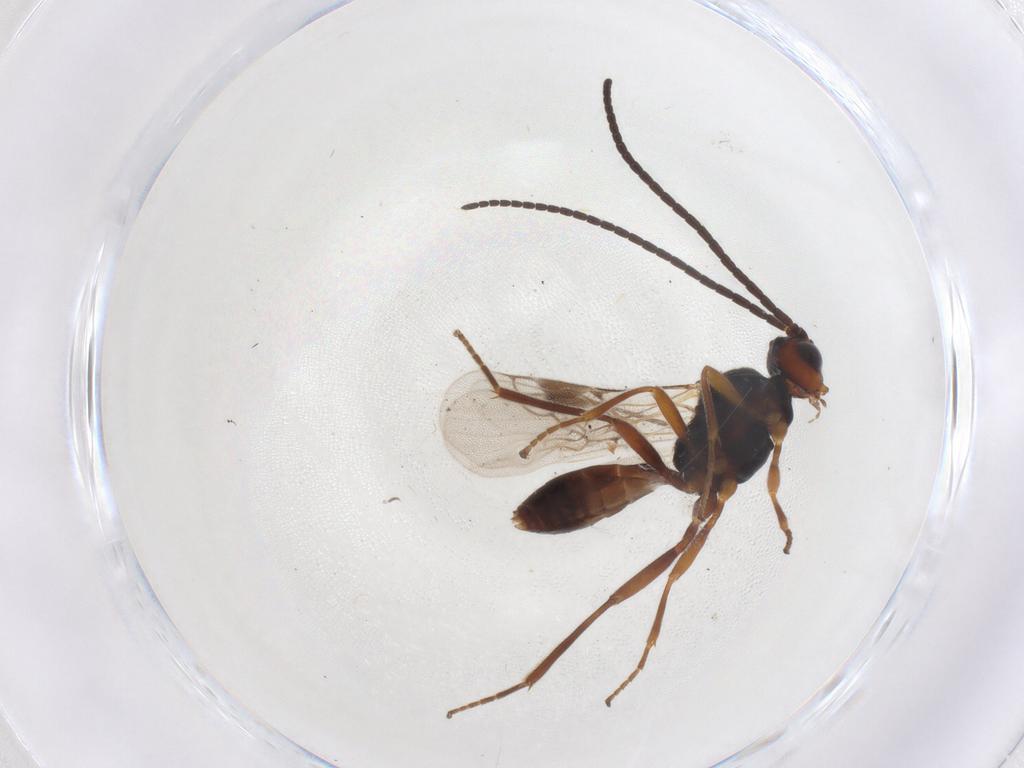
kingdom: Animalia
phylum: Arthropoda
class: Insecta
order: Hymenoptera
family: Braconidae
